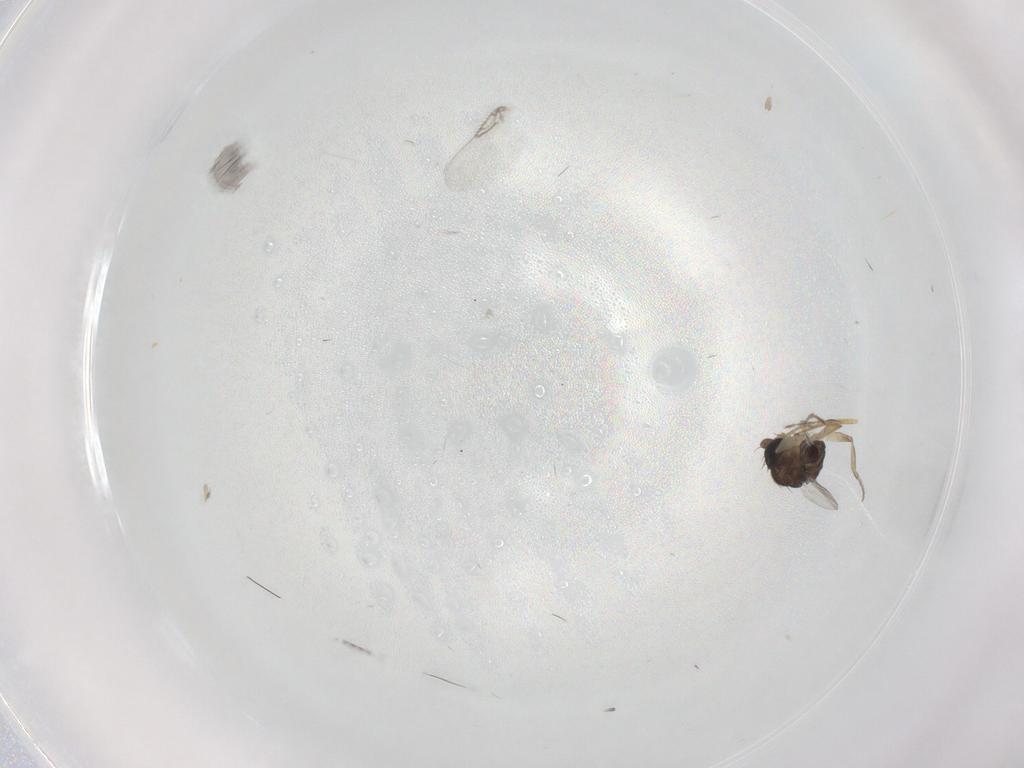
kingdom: Animalia
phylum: Arthropoda
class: Insecta
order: Diptera
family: Phoridae
